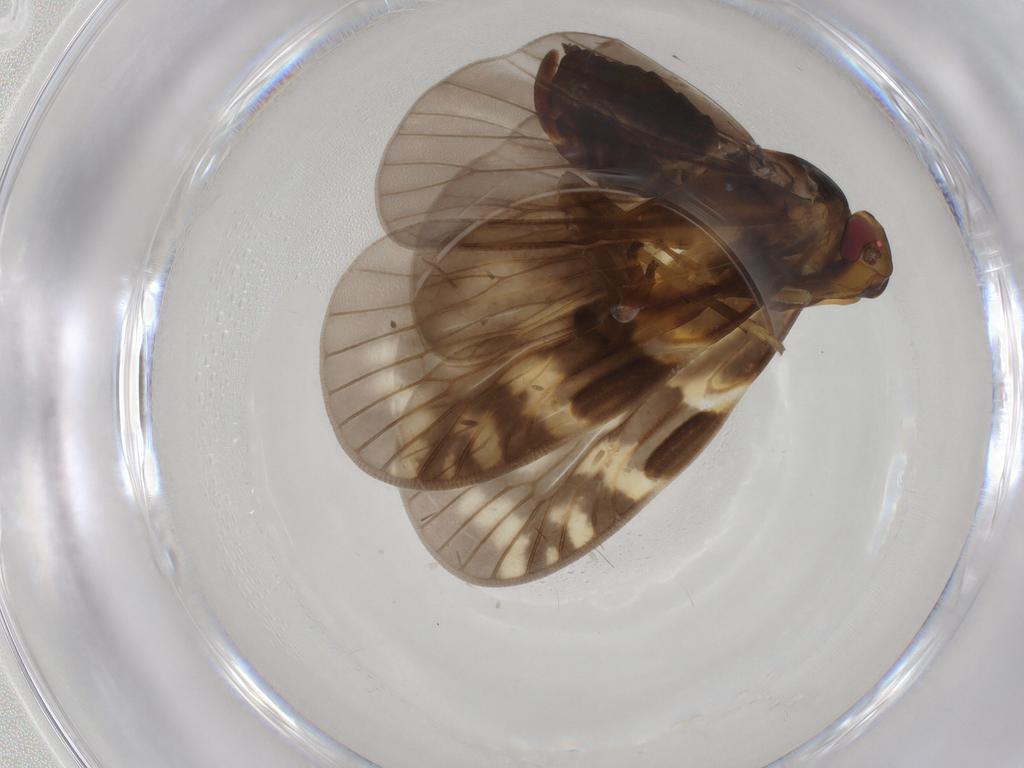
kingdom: Animalia
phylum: Arthropoda
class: Insecta
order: Hemiptera
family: Cixiidae
